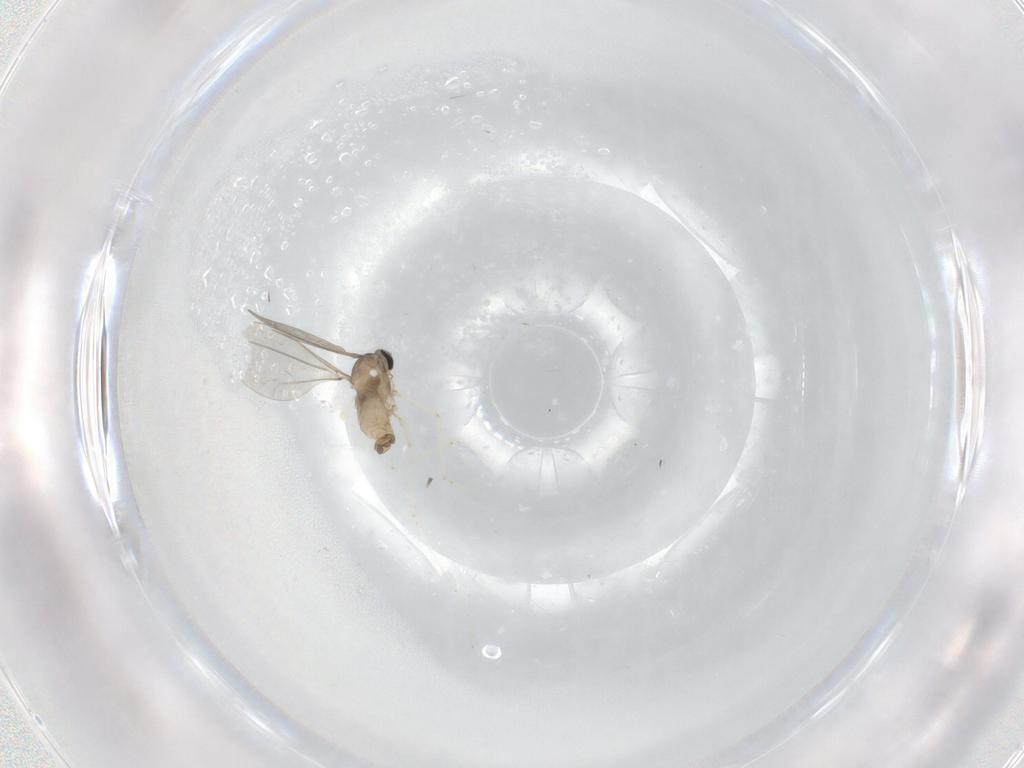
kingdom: Animalia
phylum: Arthropoda
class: Insecta
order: Diptera
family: Cecidomyiidae
